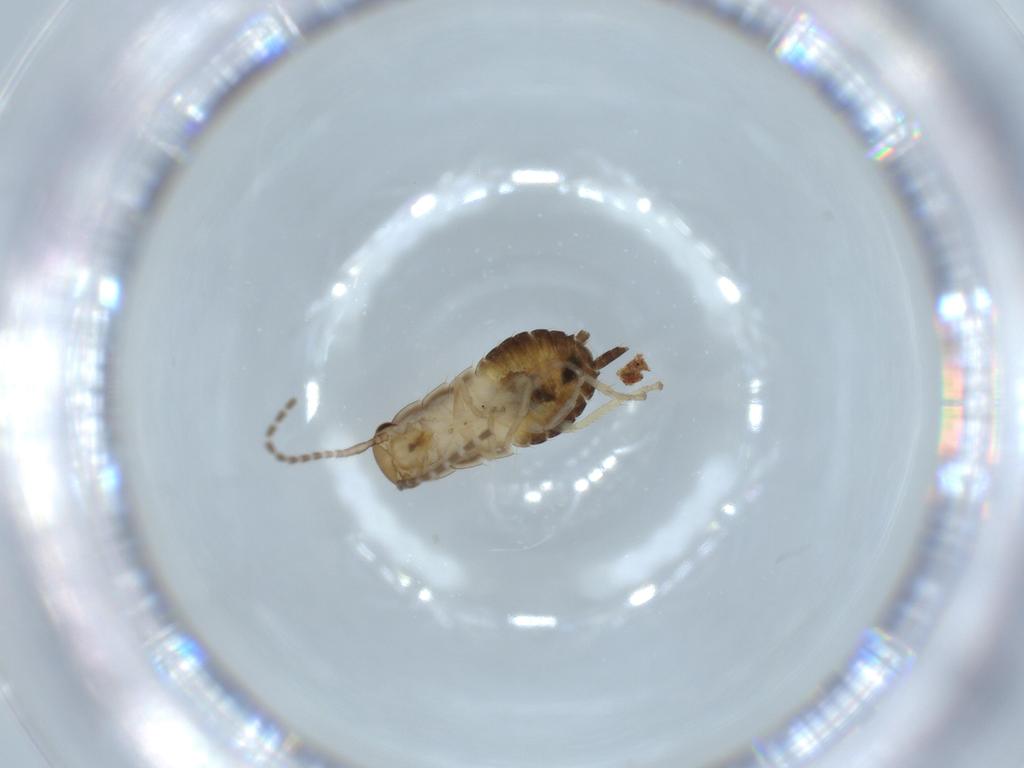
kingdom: Animalia
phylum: Arthropoda
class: Insecta
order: Blattodea
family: Ectobiidae
